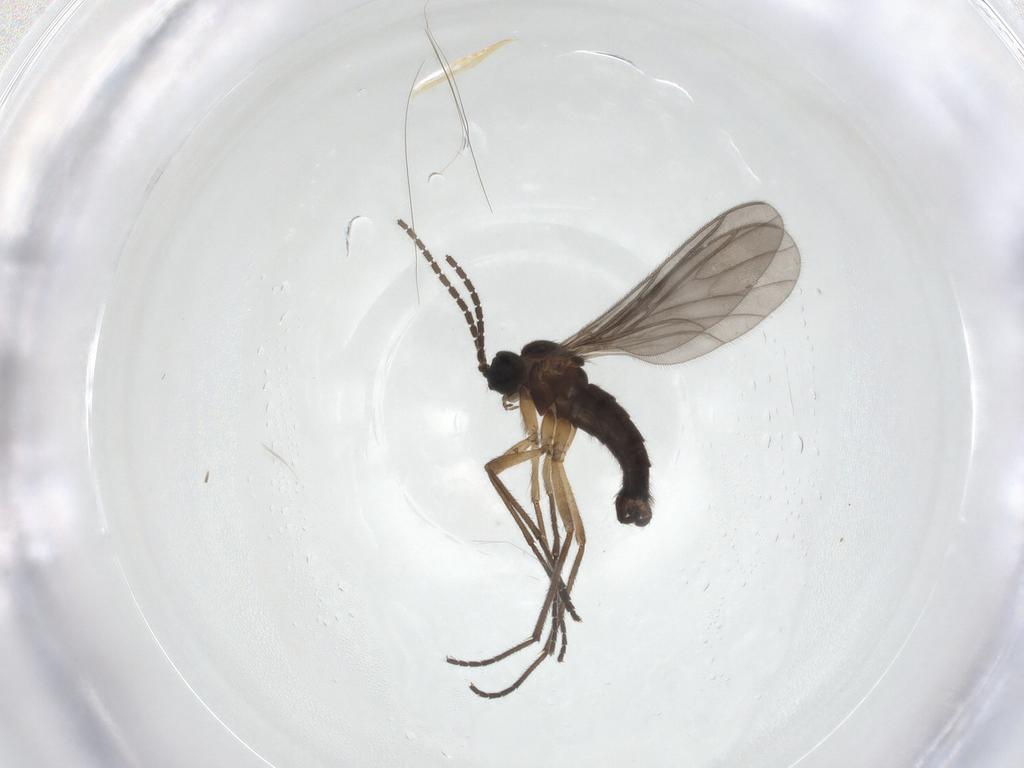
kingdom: Animalia
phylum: Arthropoda
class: Insecta
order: Diptera
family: Sciaridae
